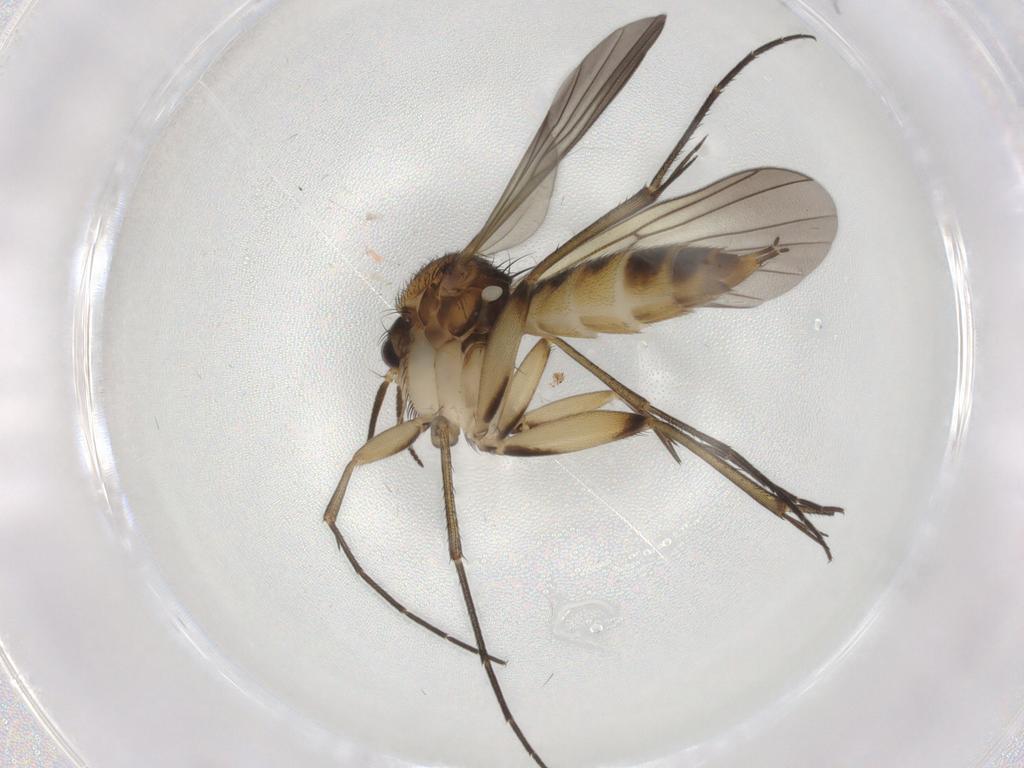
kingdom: Animalia
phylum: Arthropoda
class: Insecta
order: Diptera
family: Mycetophilidae
